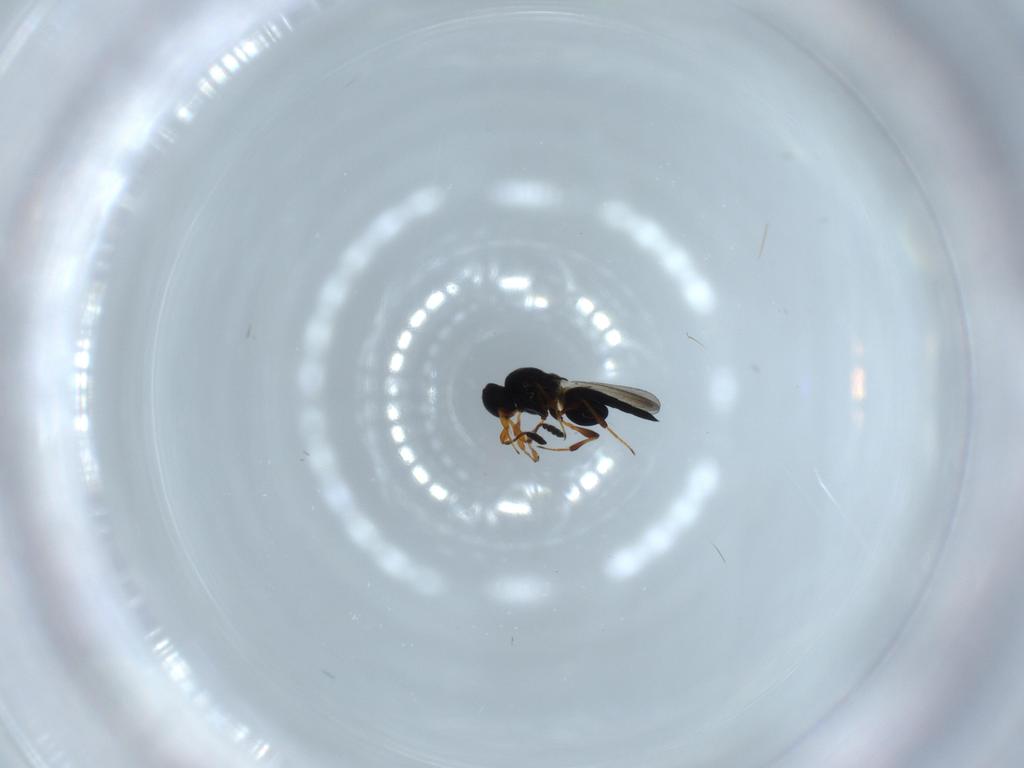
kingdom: Animalia
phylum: Arthropoda
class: Insecta
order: Hymenoptera
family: Platygastridae
